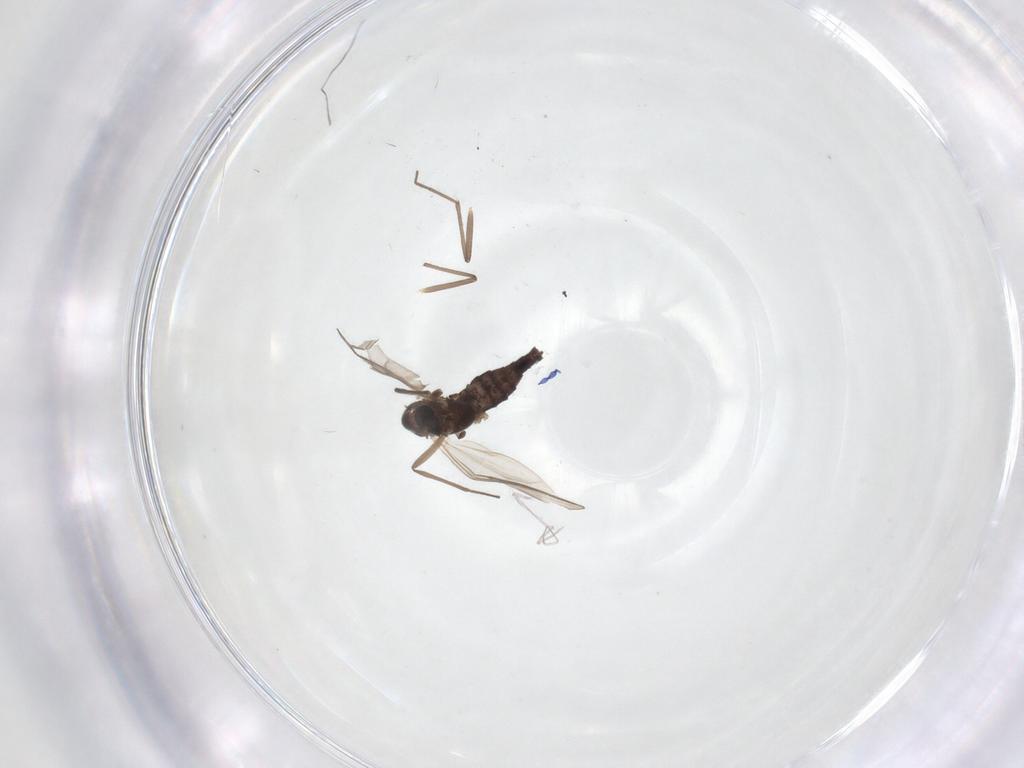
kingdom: Animalia
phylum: Arthropoda
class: Insecta
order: Diptera
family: Chironomidae
